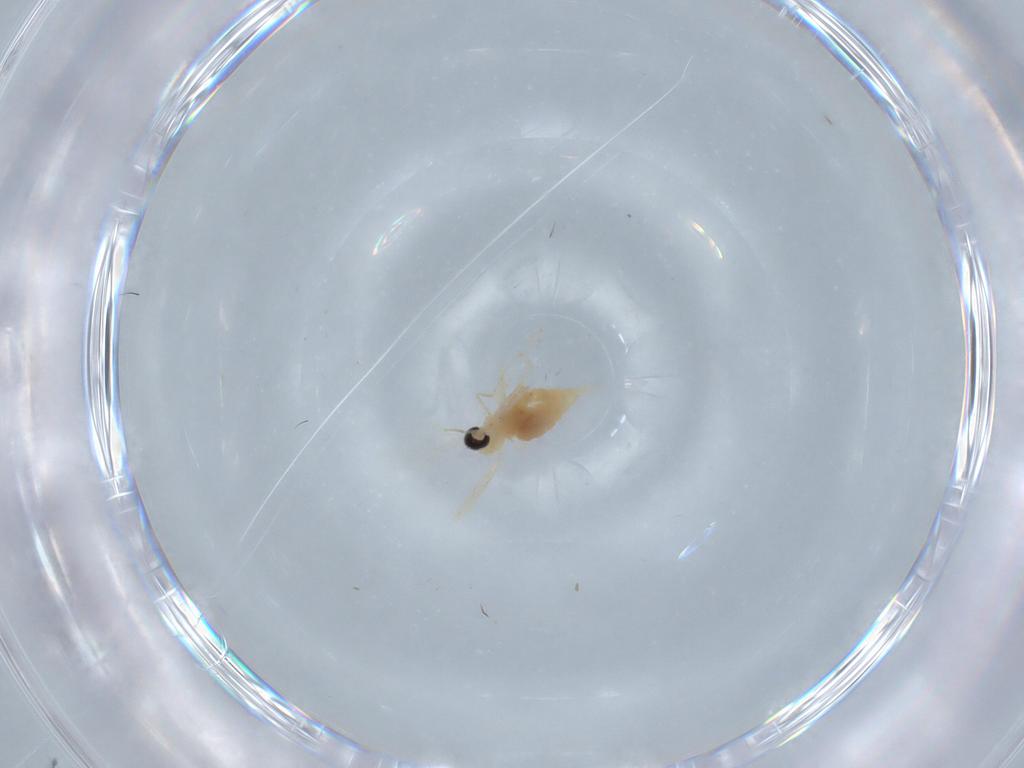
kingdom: Animalia
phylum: Arthropoda
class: Insecta
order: Diptera
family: Cecidomyiidae
